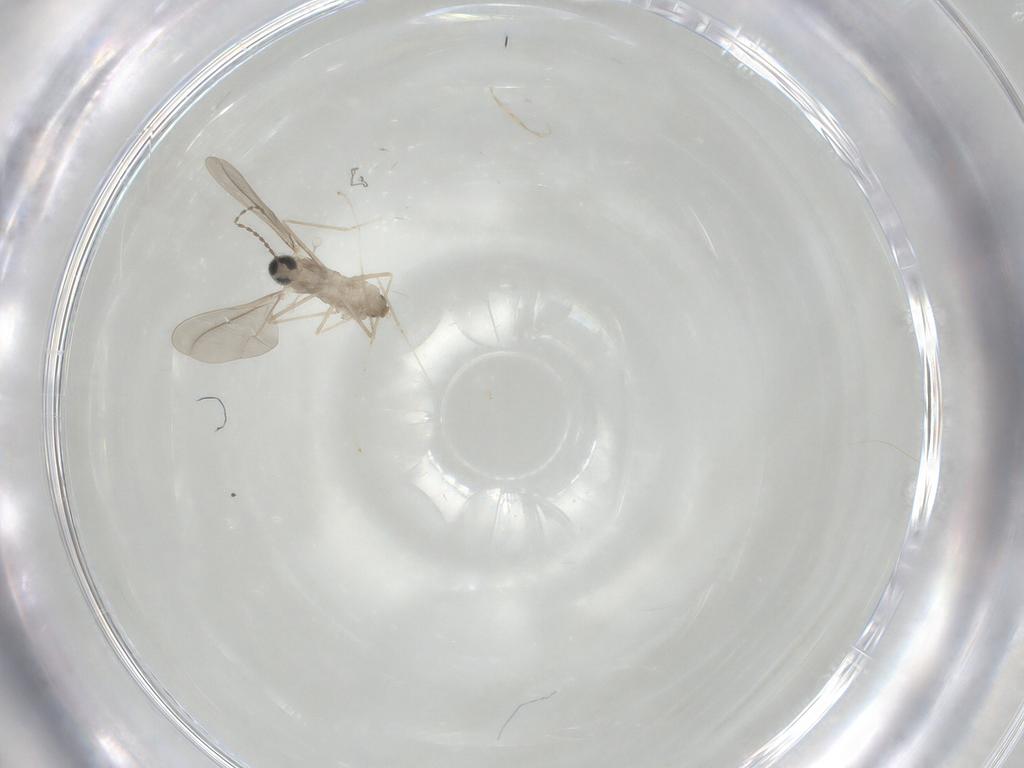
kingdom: Animalia
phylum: Arthropoda
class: Insecta
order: Diptera
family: Cecidomyiidae
